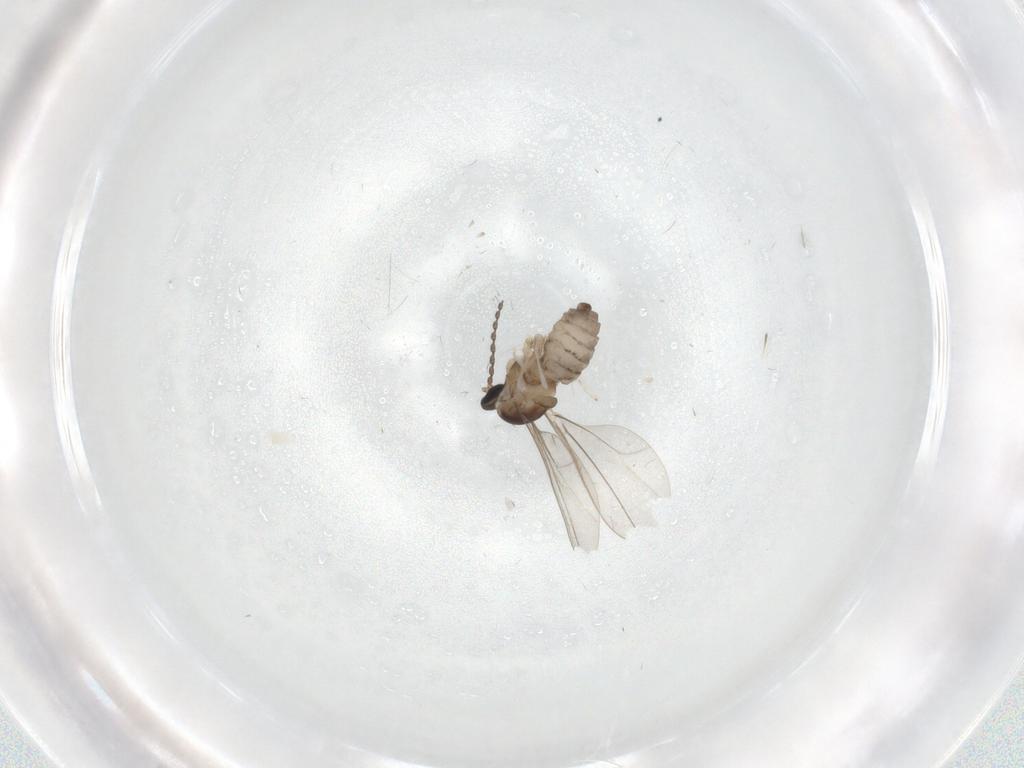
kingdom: Animalia
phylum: Arthropoda
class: Insecta
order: Diptera
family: Cecidomyiidae
